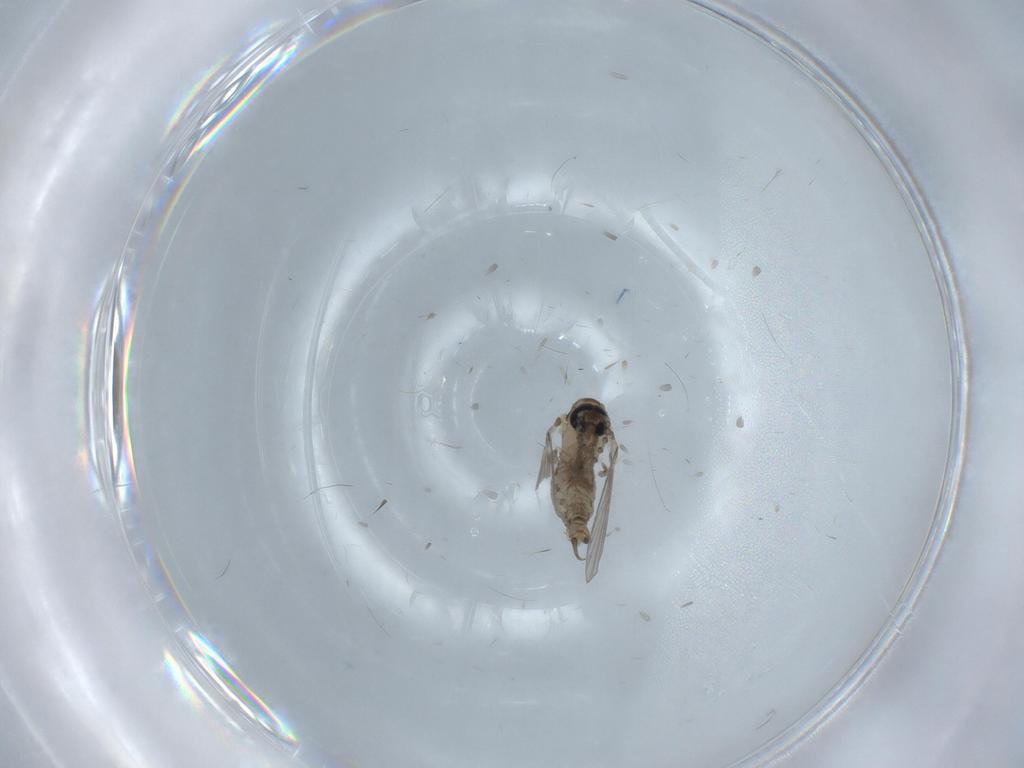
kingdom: Animalia
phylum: Arthropoda
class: Insecta
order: Diptera
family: Drosophilidae
